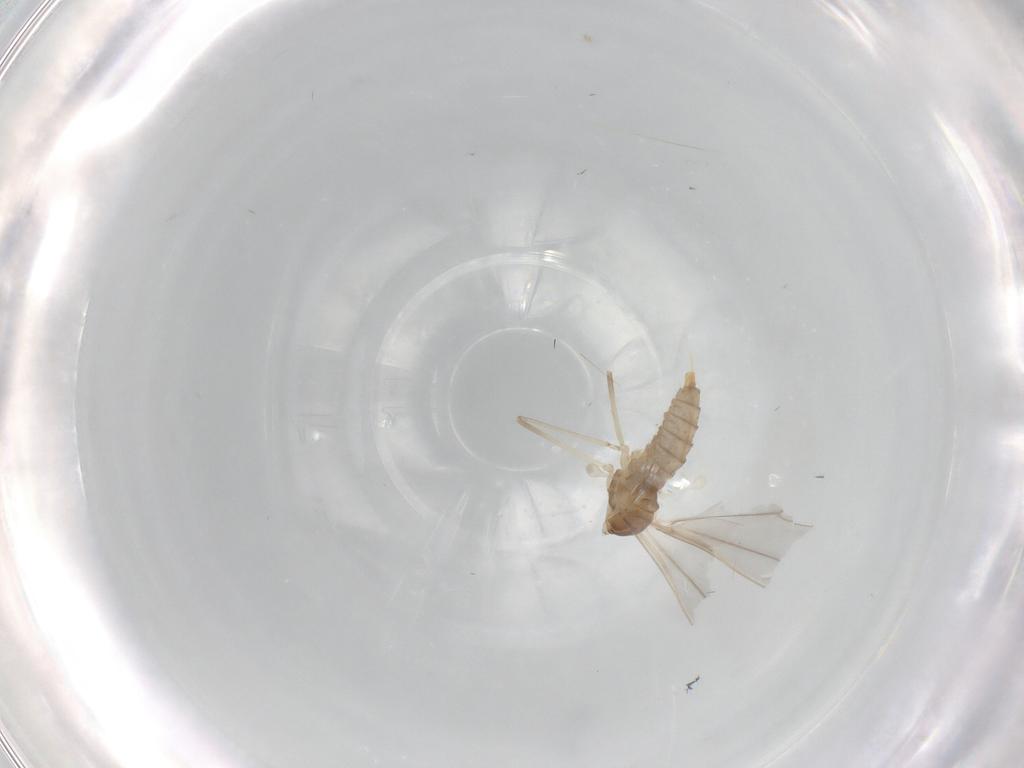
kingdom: Animalia
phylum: Arthropoda
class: Insecta
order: Diptera
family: Cecidomyiidae
